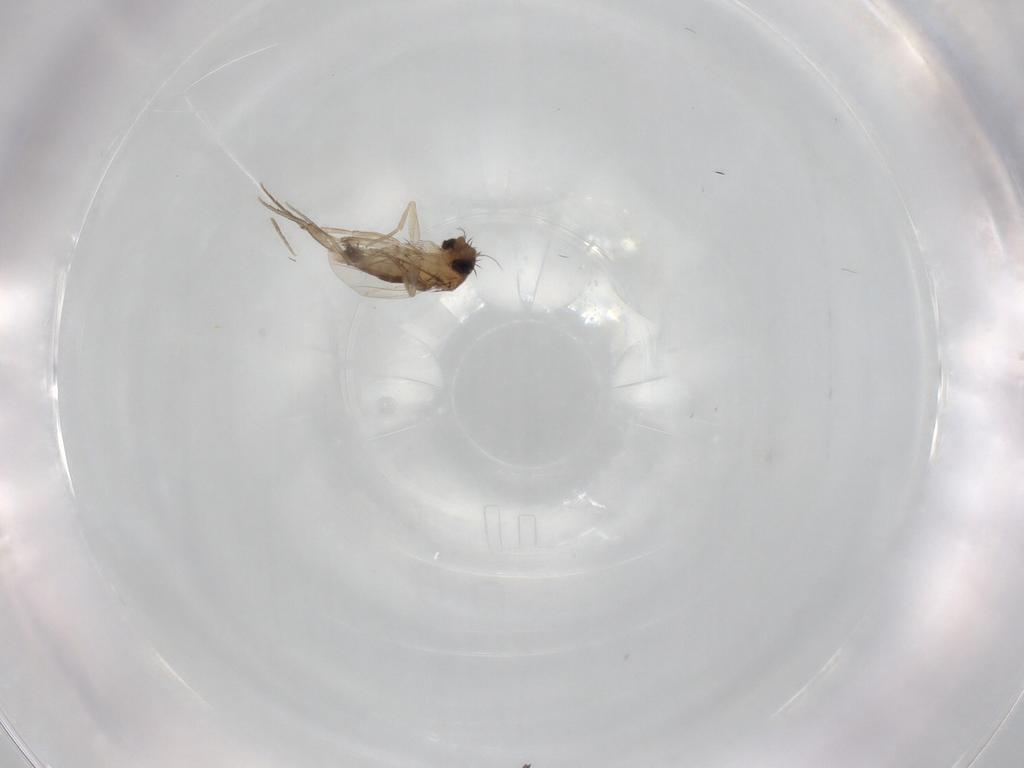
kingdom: Animalia
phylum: Arthropoda
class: Insecta
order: Diptera
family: Phoridae
